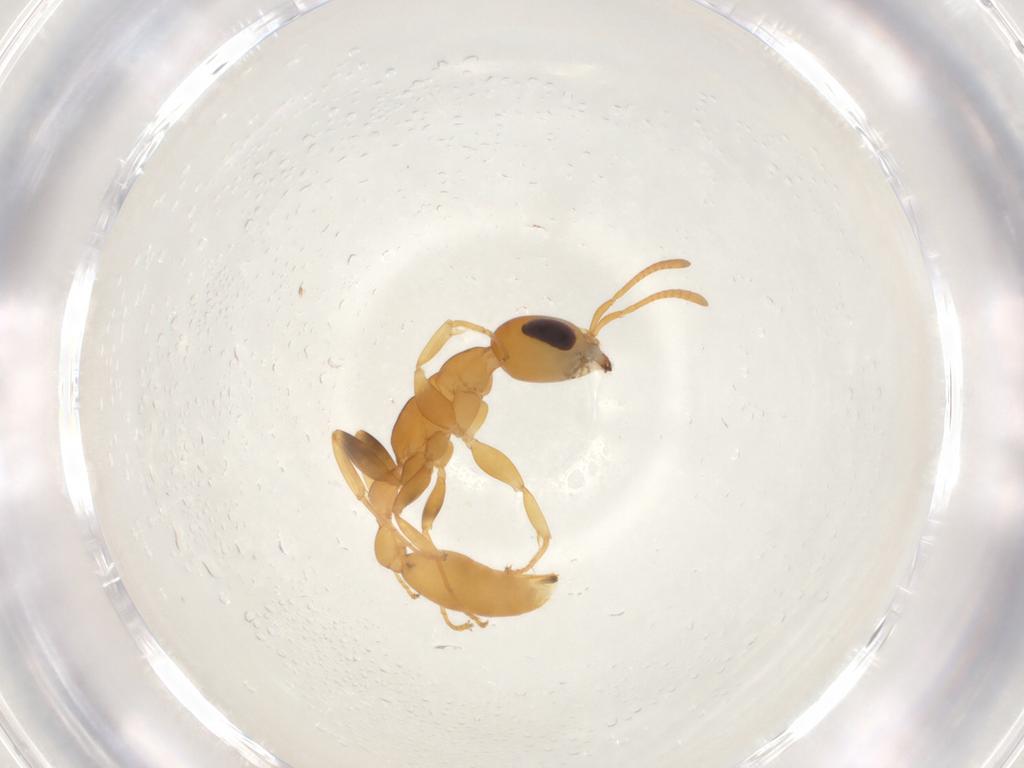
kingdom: Animalia
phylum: Arthropoda
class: Insecta
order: Hymenoptera
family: Formicidae
